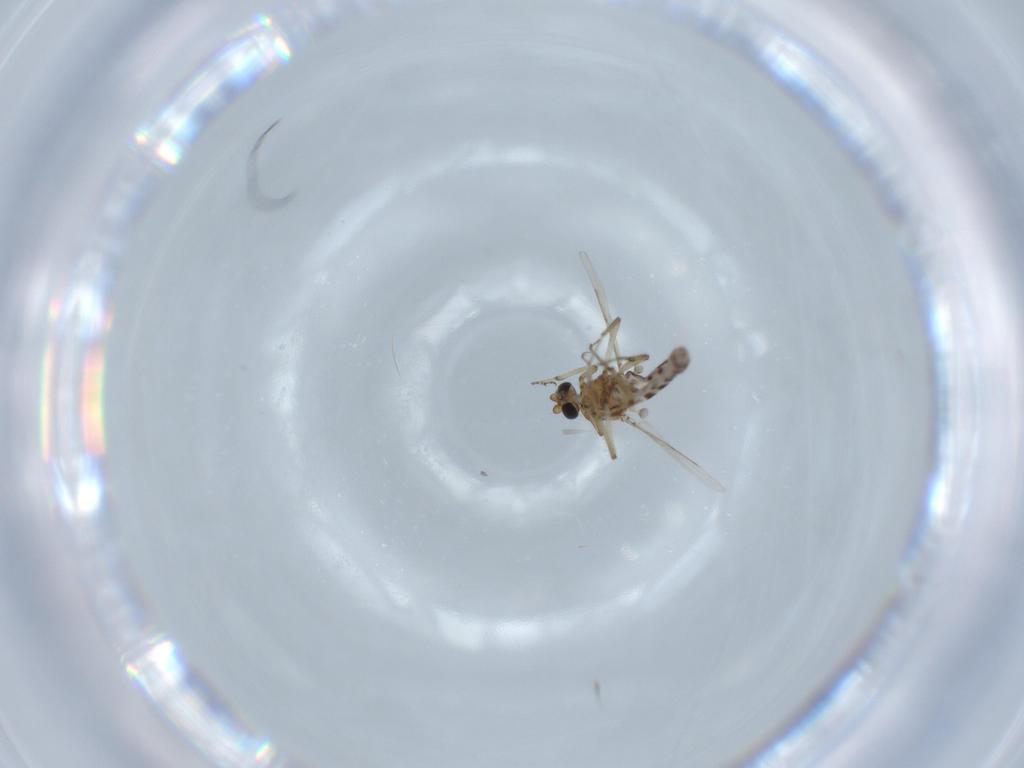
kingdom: Animalia
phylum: Arthropoda
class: Insecta
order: Diptera
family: Ceratopogonidae
